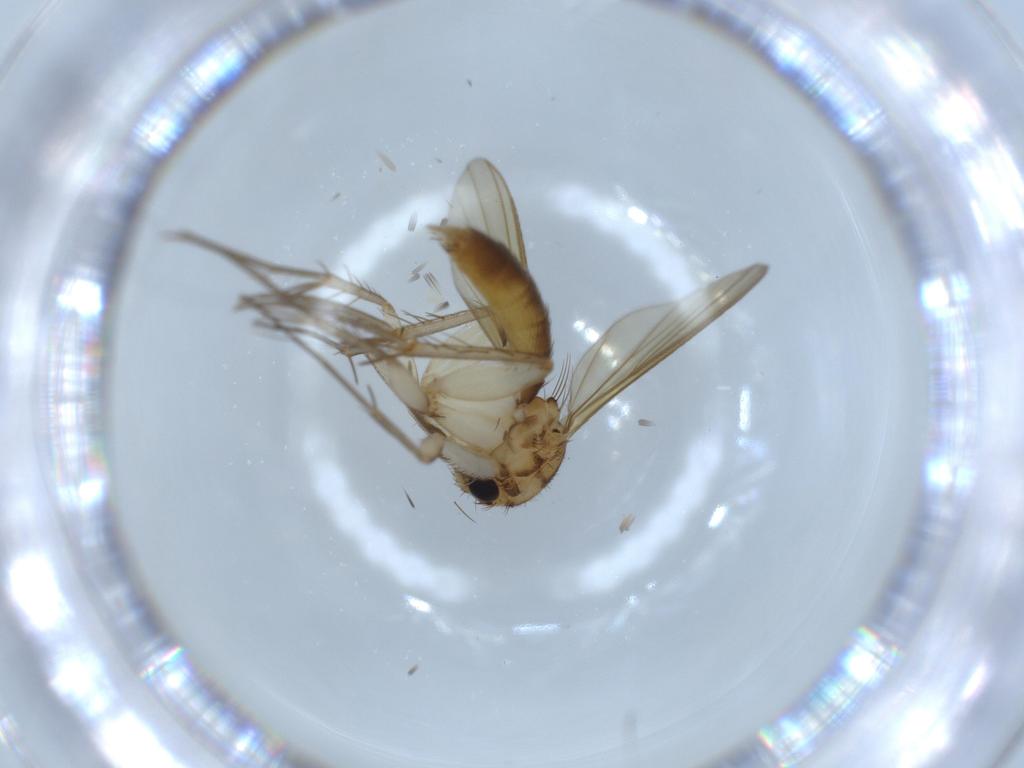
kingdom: Animalia
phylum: Arthropoda
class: Insecta
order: Diptera
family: Sciaridae
